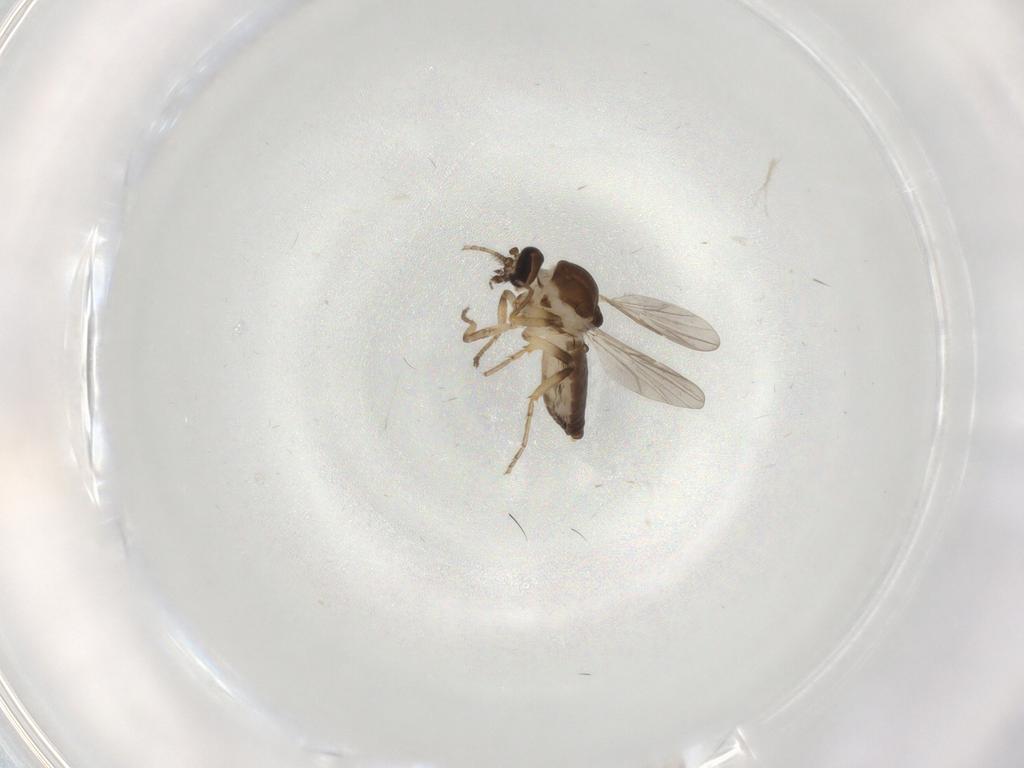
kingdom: Animalia
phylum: Arthropoda
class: Insecta
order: Diptera
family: Ceratopogonidae
